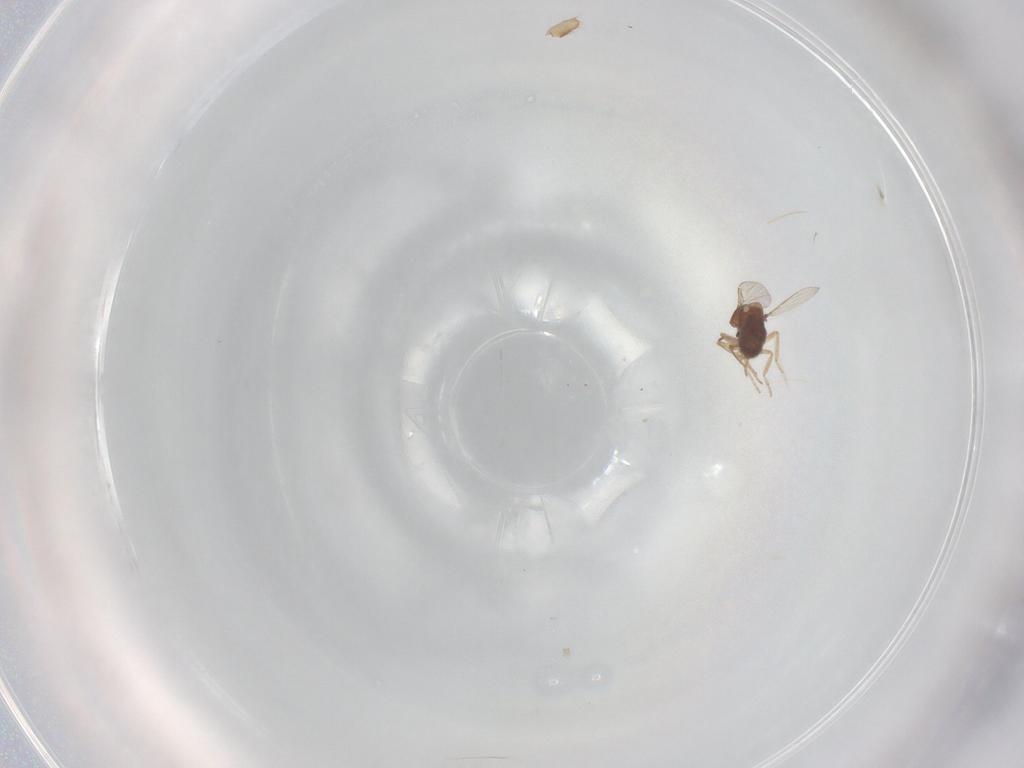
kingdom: Animalia
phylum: Arthropoda
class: Insecta
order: Diptera
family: Ceratopogonidae
